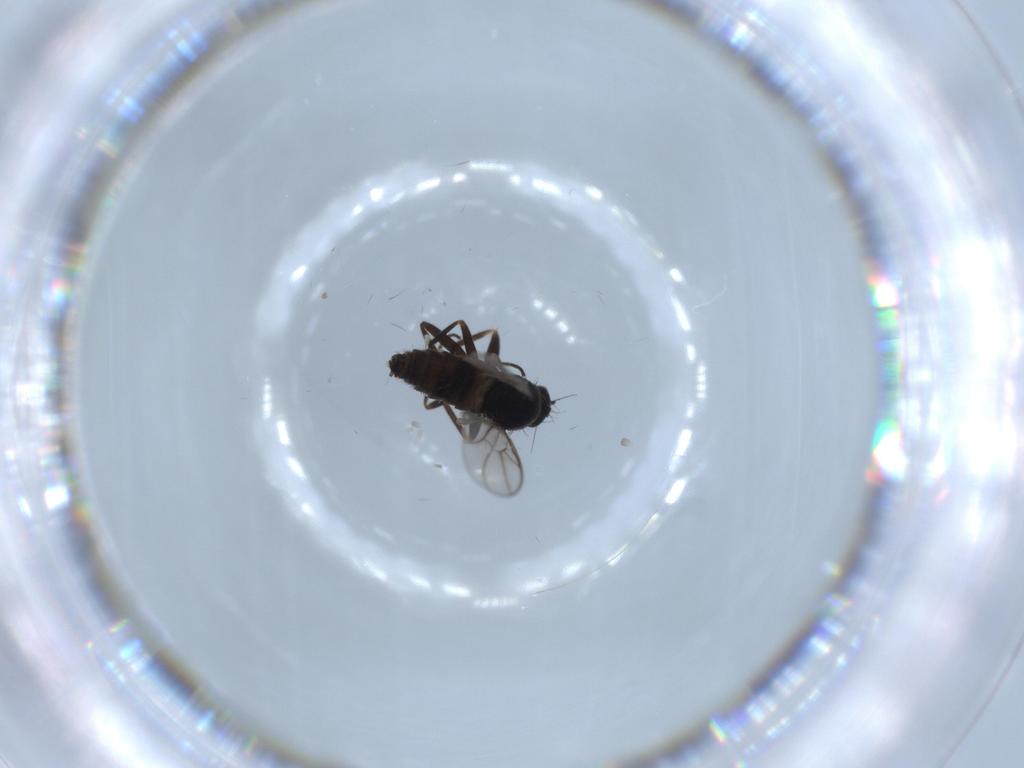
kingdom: Animalia
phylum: Arthropoda
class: Insecta
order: Diptera
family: Hybotidae
